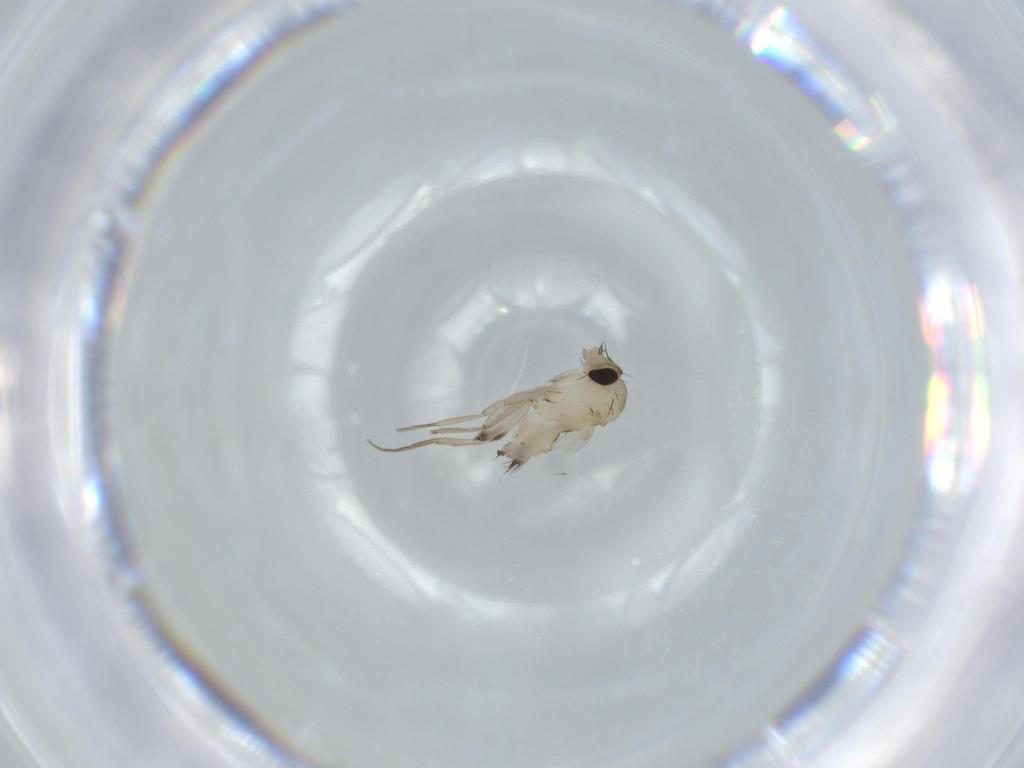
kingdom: Animalia
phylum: Arthropoda
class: Insecta
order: Diptera
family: Phoridae
